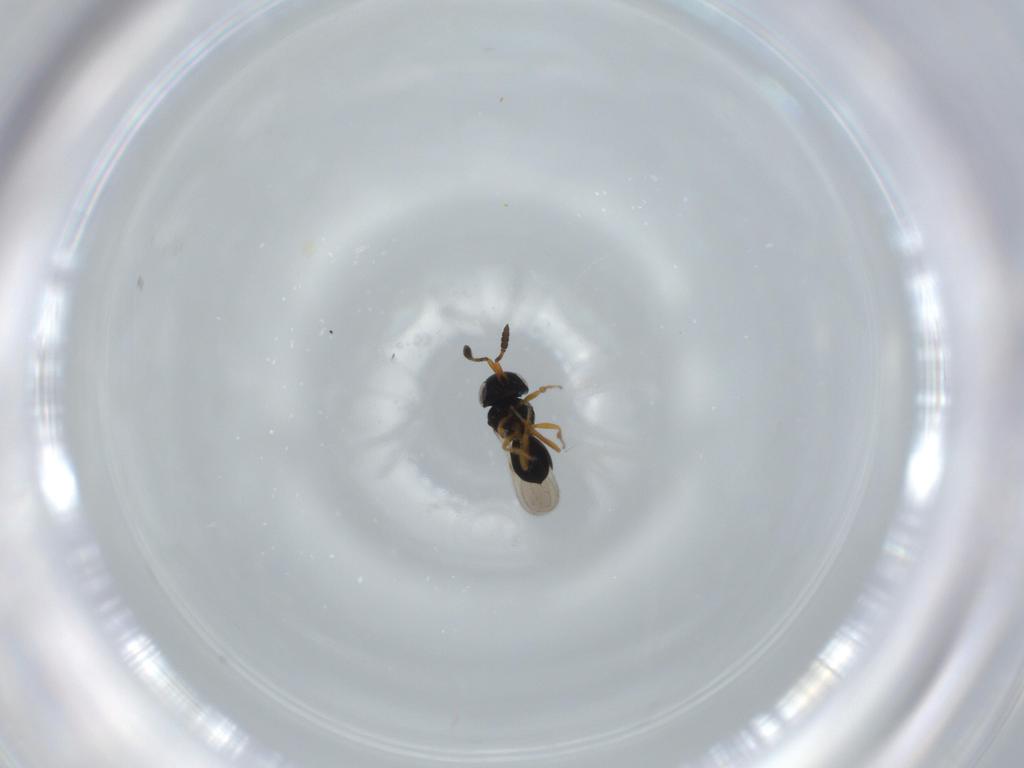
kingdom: Animalia
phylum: Arthropoda
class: Insecta
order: Hymenoptera
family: Scelionidae
